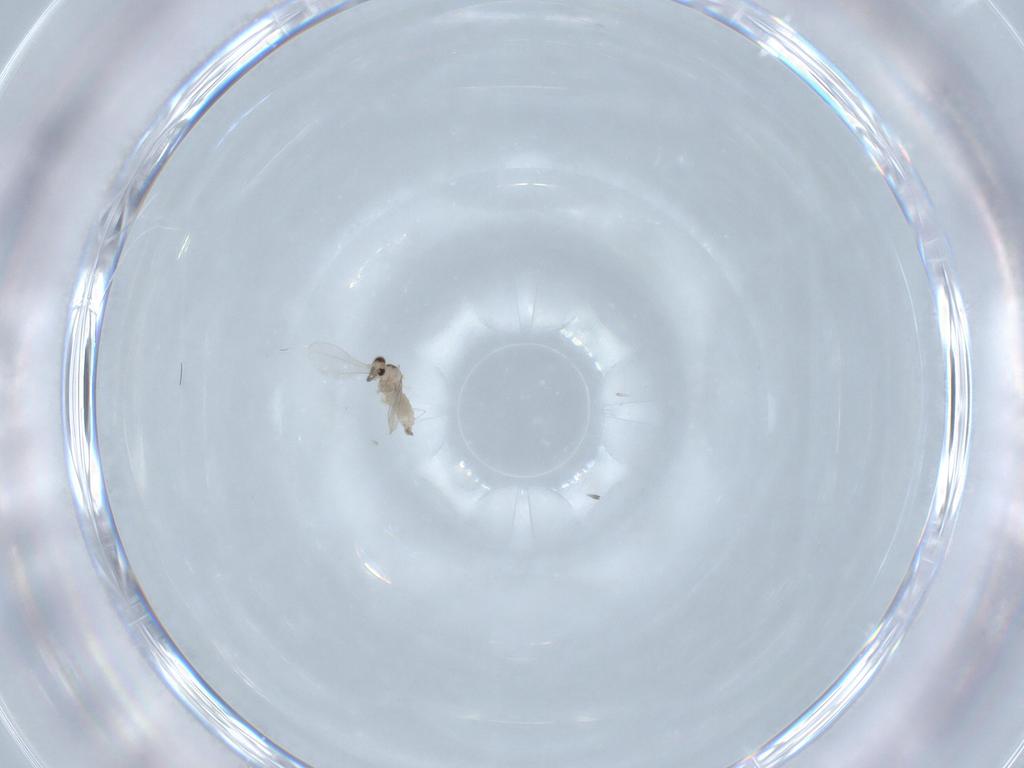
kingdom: Animalia
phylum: Arthropoda
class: Insecta
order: Diptera
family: Cecidomyiidae
